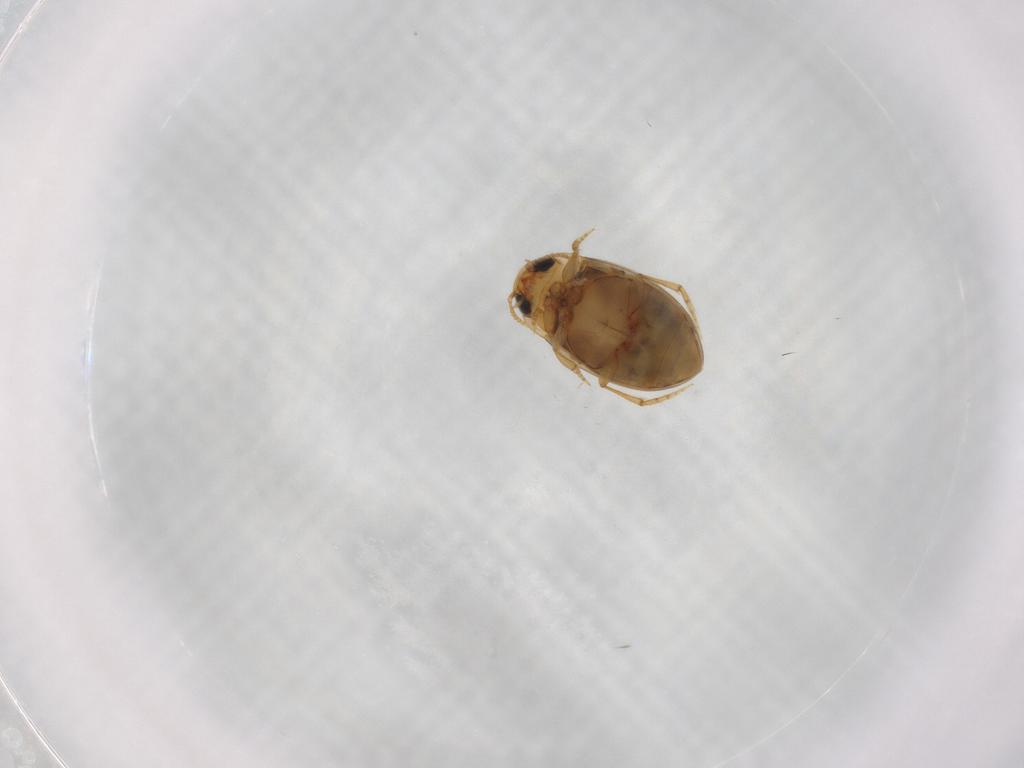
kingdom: Animalia
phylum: Arthropoda
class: Insecta
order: Coleoptera
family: Dytiscidae
